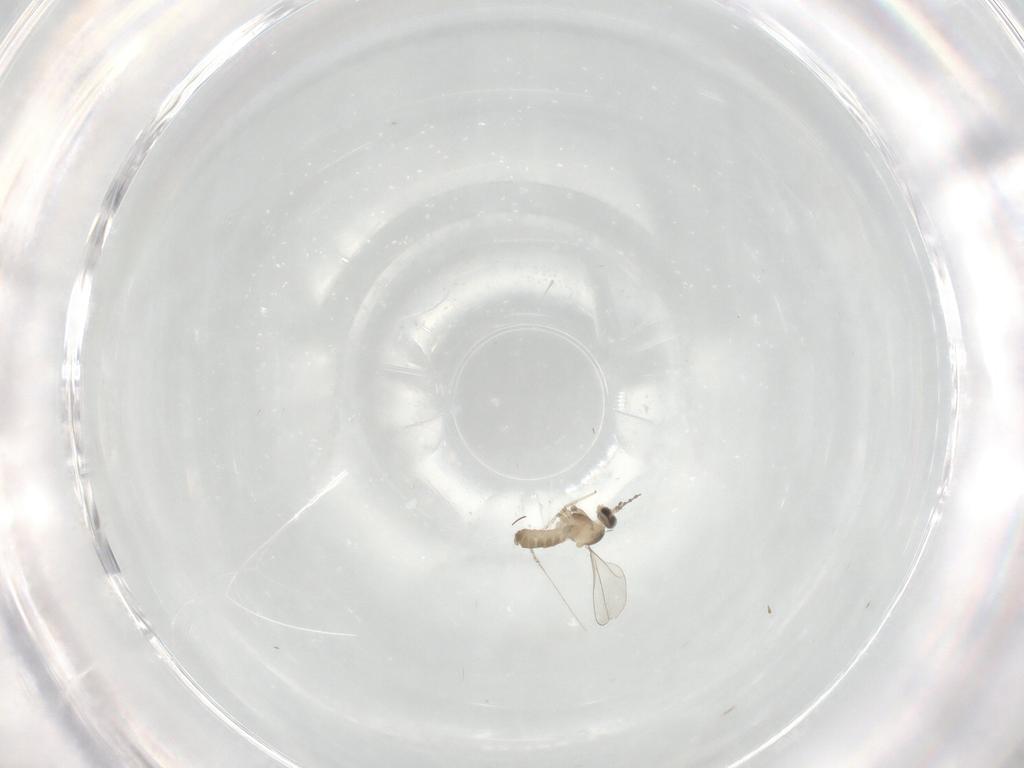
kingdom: Animalia
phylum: Arthropoda
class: Insecta
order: Diptera
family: Cecidomyiidae
